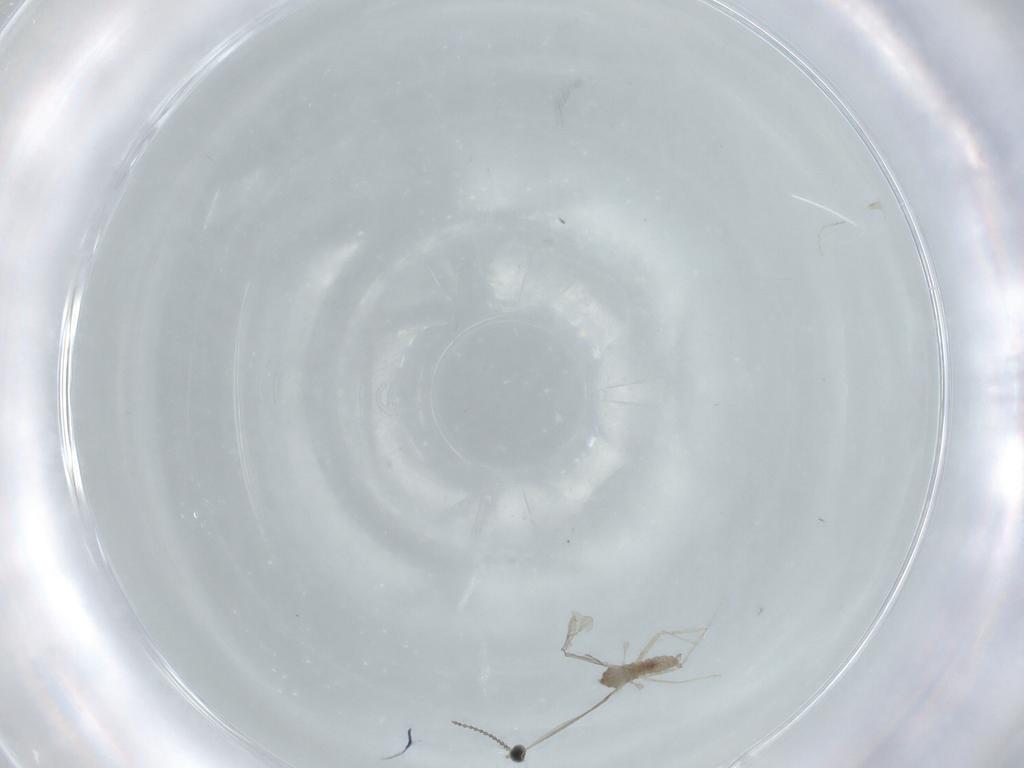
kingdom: Animalia
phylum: Arthropoda
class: Insecta
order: Diptera
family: Cecidomyiidae
